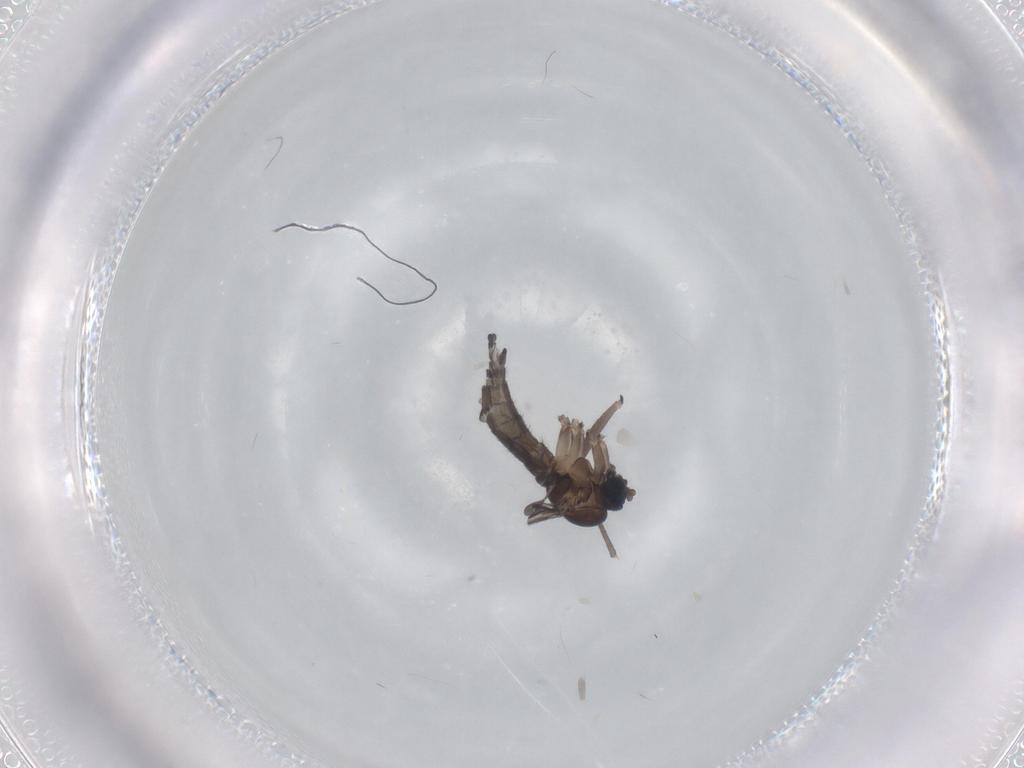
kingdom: Animalia
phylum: Arthropoda
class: Insecta
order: Diptera
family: Sciaridae
